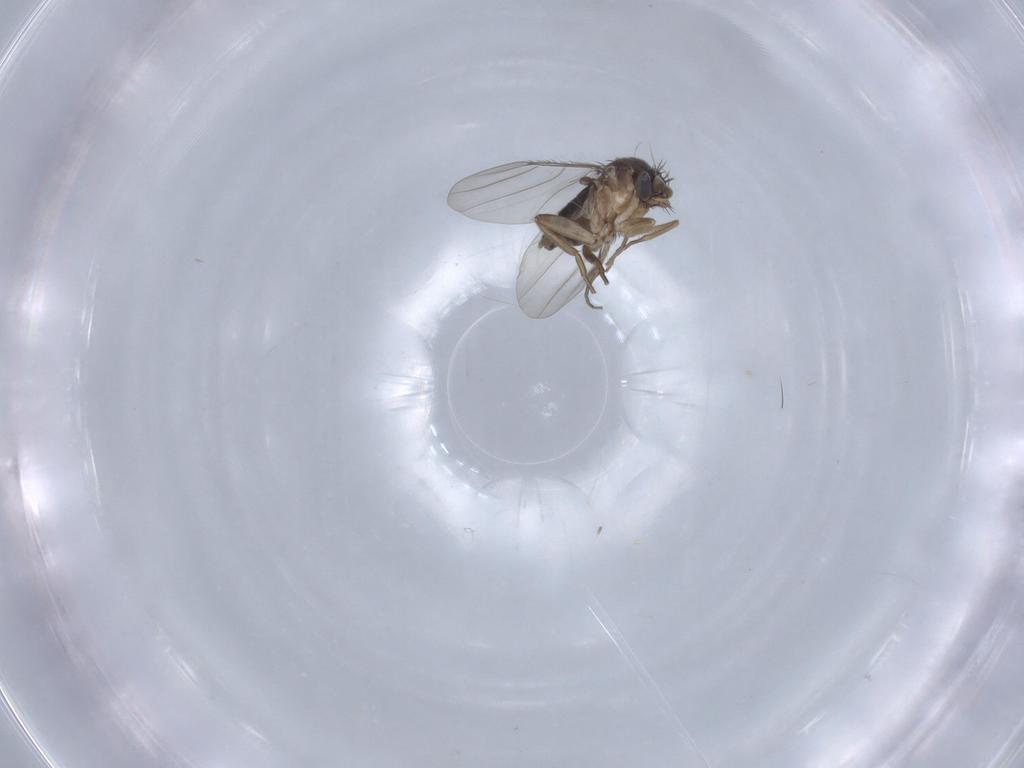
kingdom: Animalia
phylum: Arthropoda
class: Insecta
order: Diptera
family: Phoridae
